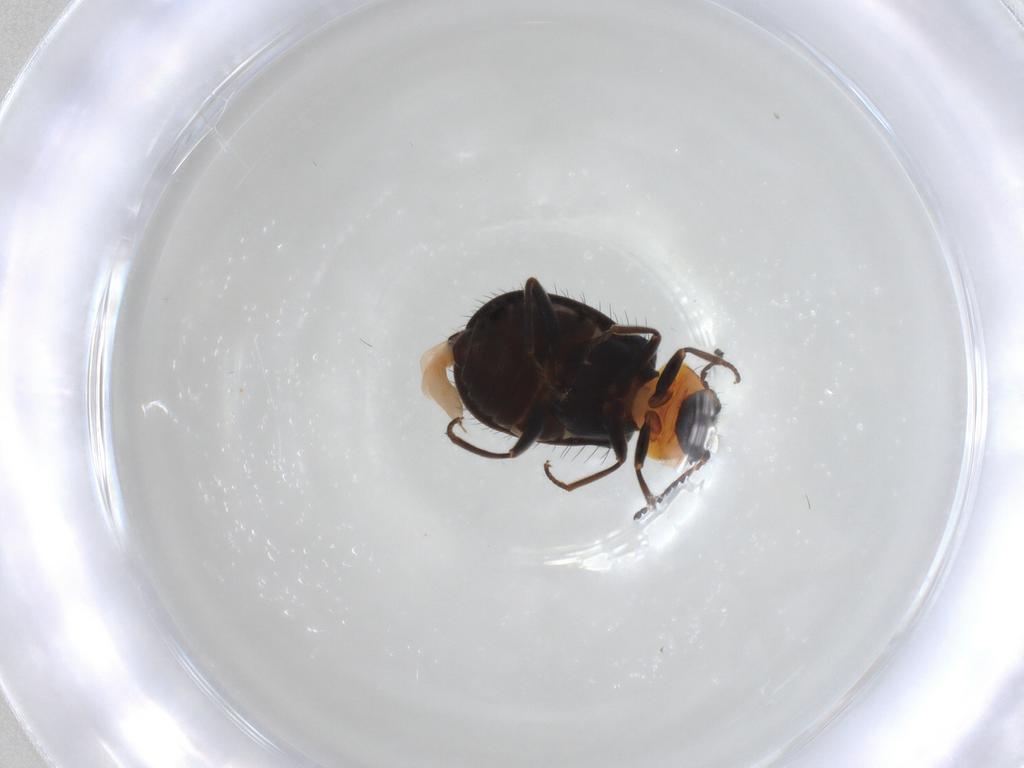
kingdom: Animalia
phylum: Arthropoda
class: Insecta
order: Coleoptera
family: Melyridae
